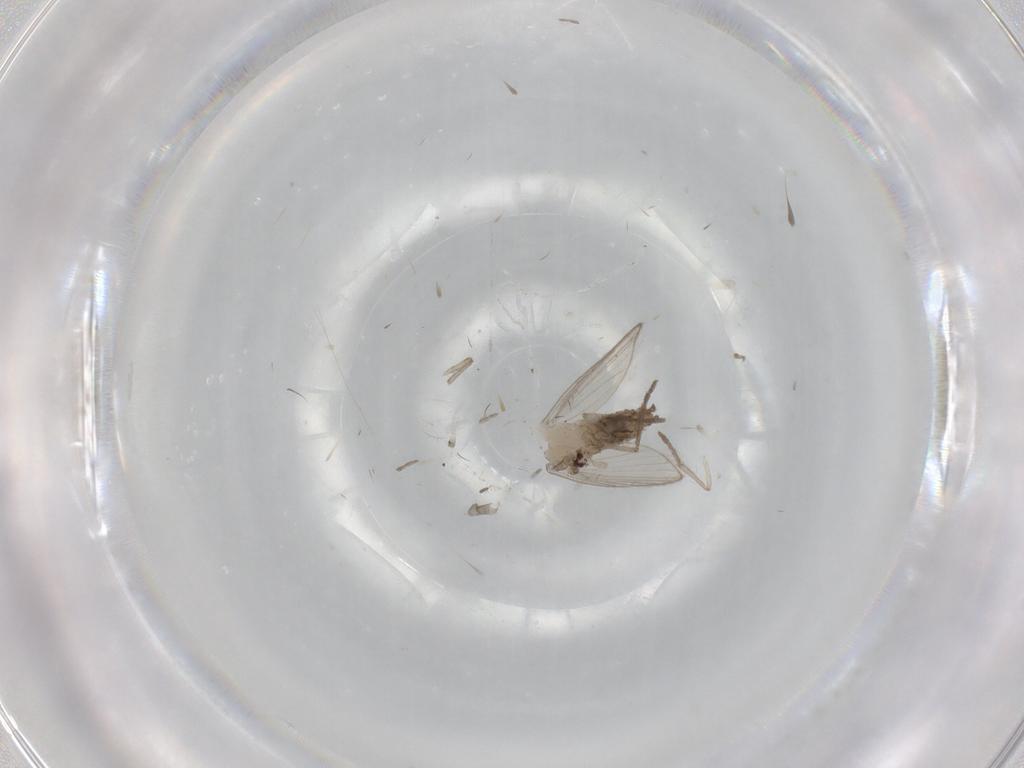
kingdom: Animalia
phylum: Arthropoda
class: Insecta
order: Diptera
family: Psychodidae
